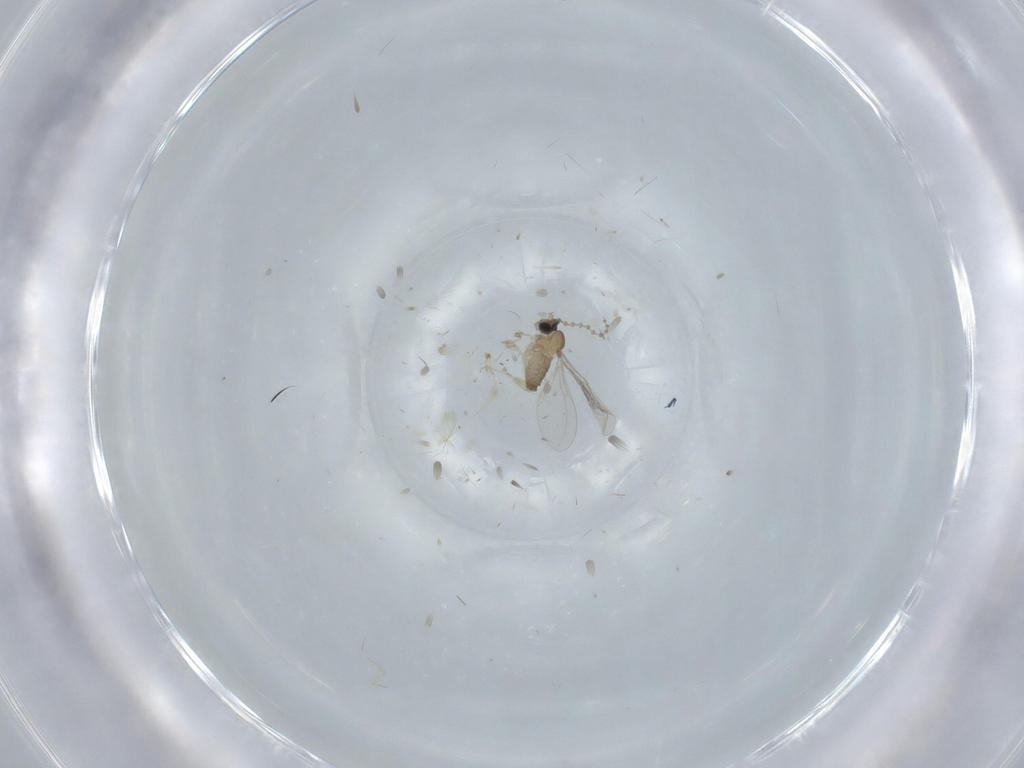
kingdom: Animalia
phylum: Arthropoda
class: Insecta
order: Diptera
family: Cecidomyiidae
